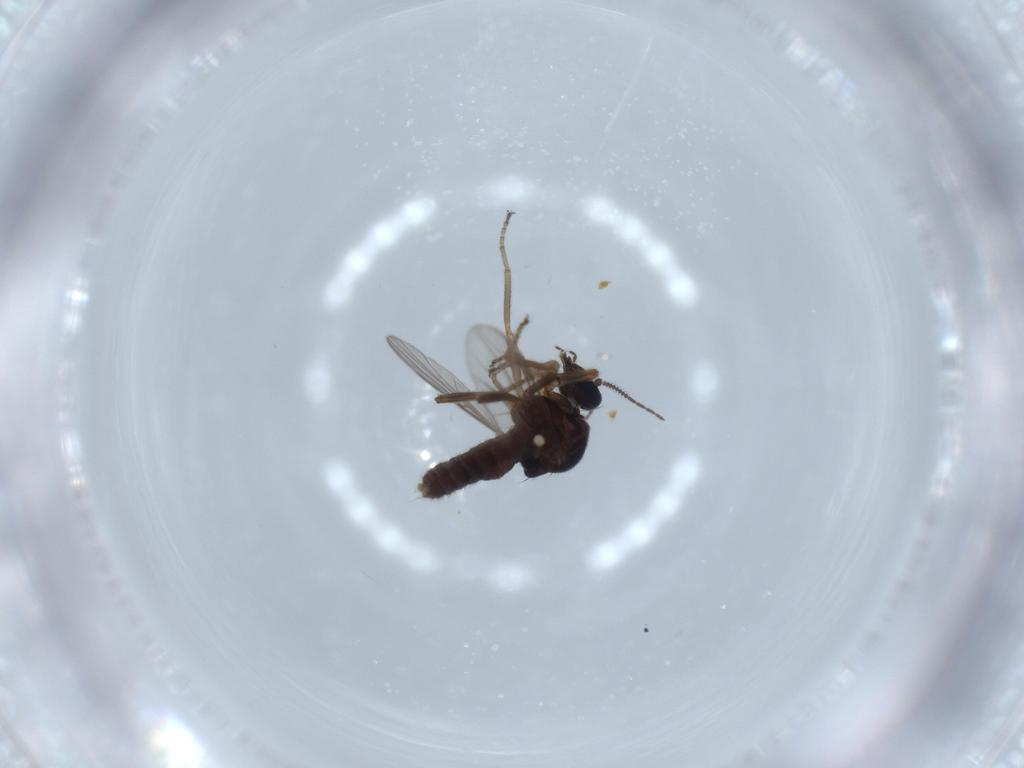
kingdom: Animalia
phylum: Arthropoda
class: Insecta
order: Diptera
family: Ceratopogonidae
